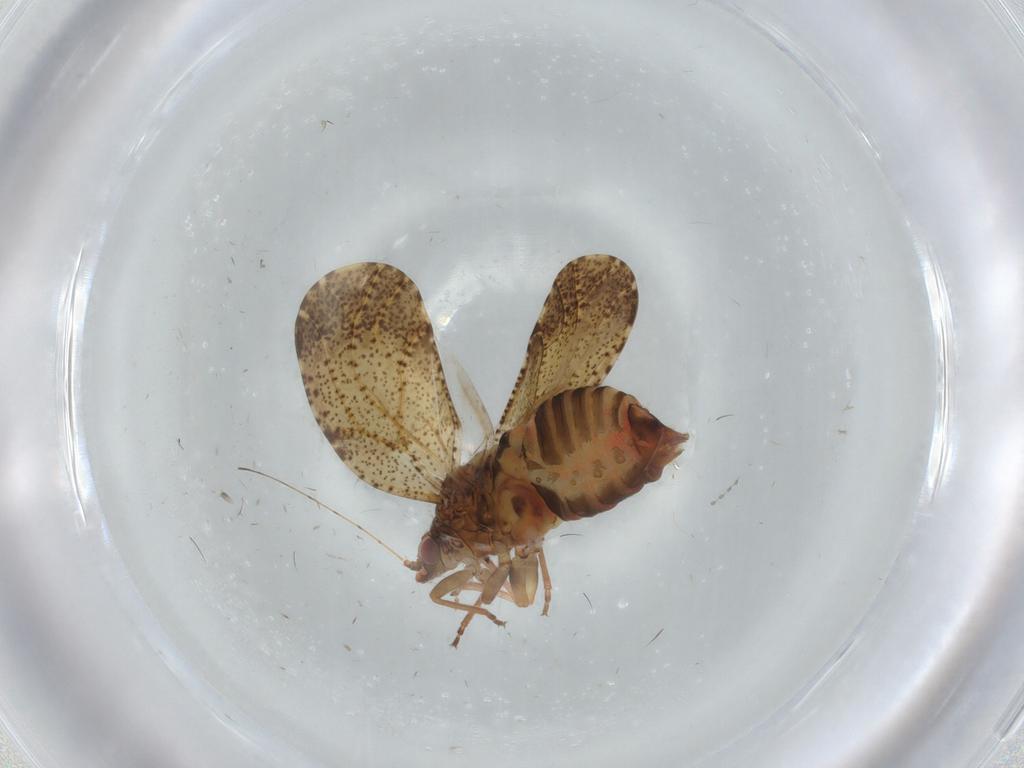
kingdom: Animalia
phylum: Arthropoda
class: Insecta
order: Hemiptera
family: Psyllidae
